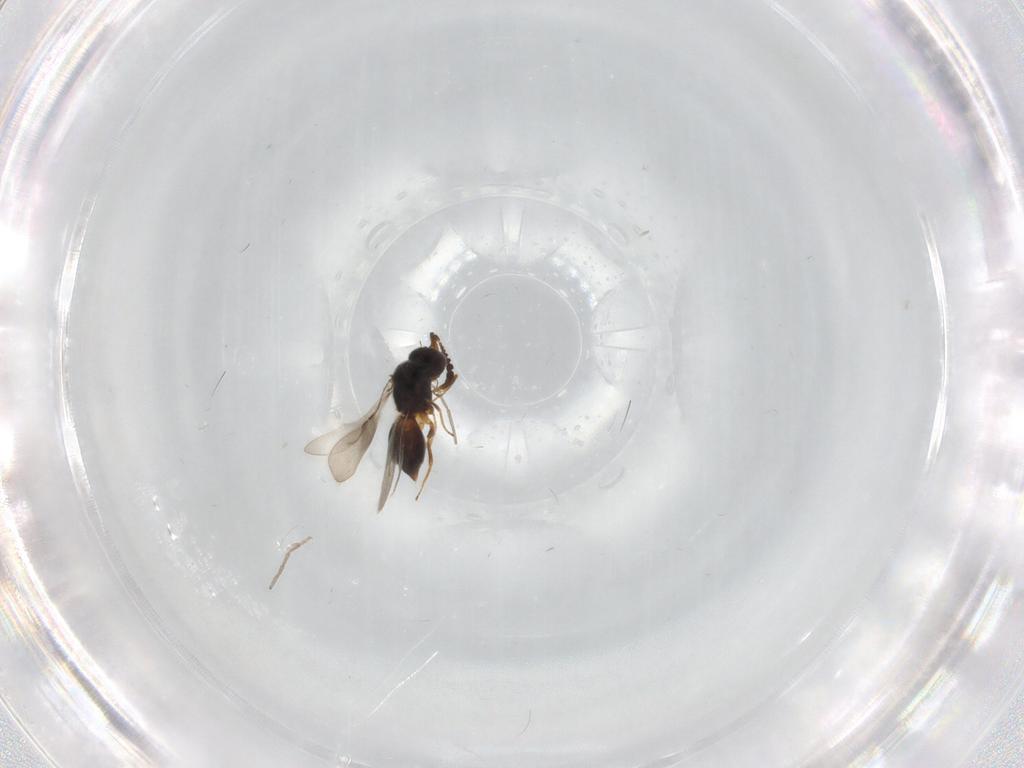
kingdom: Animalia
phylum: Arthropoda
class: Insecta
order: Hymenoptera
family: Ceraphronidae
